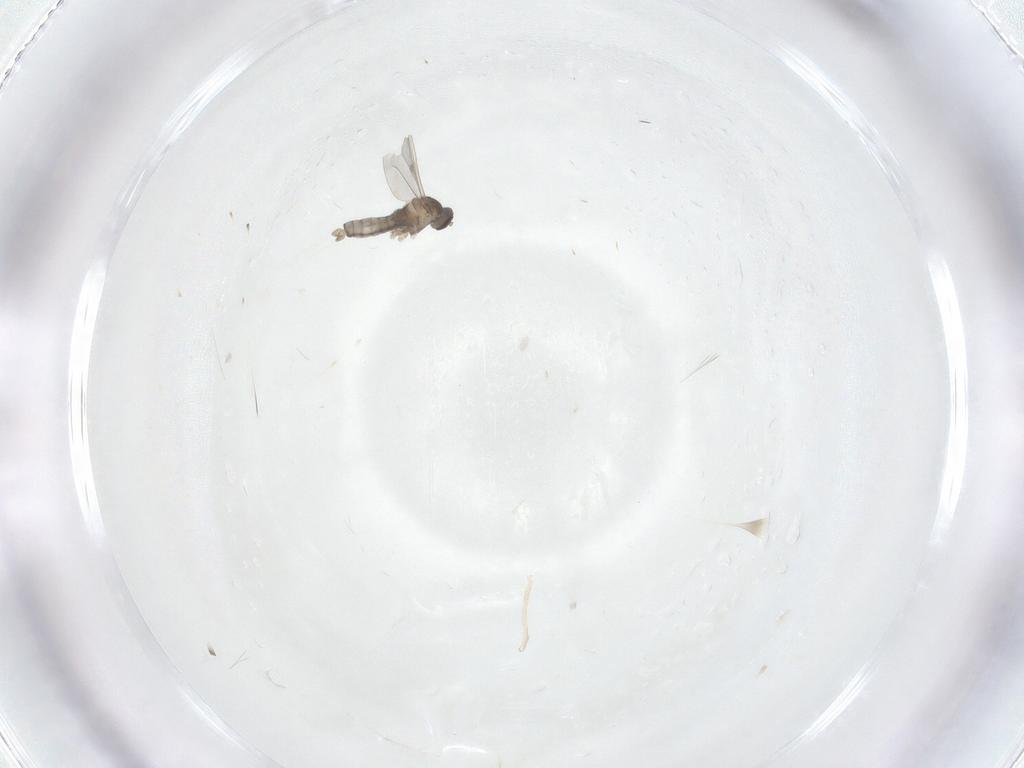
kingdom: Animalia
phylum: Arthropoda
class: Insecta
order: Diptera
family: Cecidomyiidae
